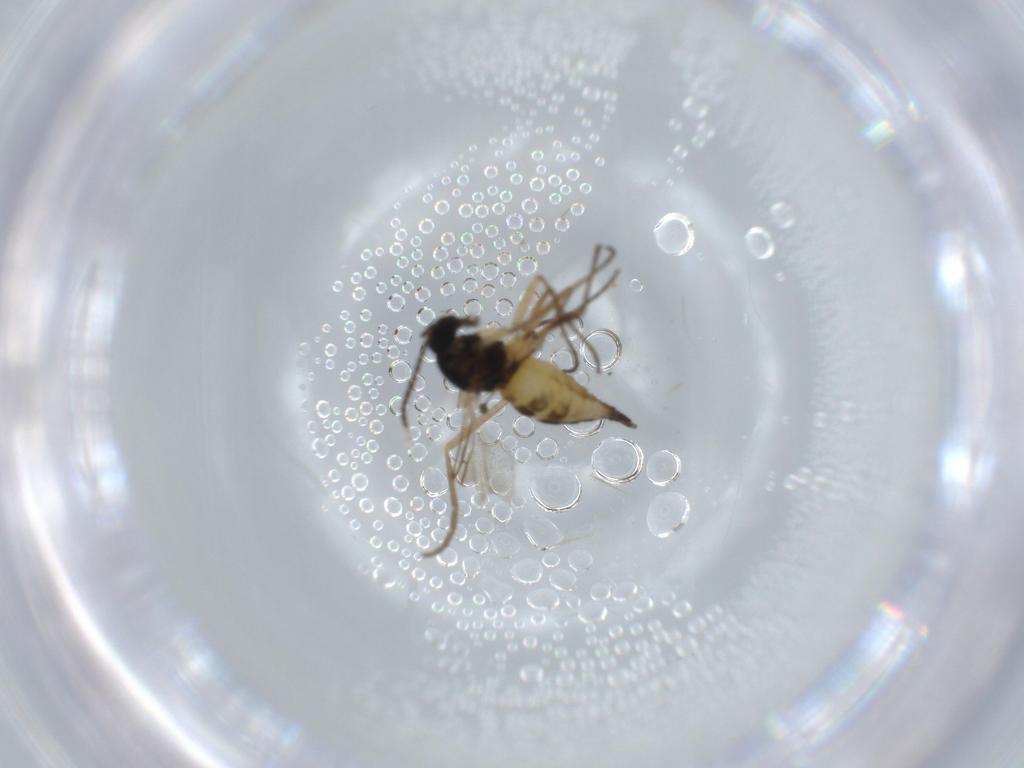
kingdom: Animalia
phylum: Arthropoda
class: Insecta
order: Diptera
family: Sciaridae
